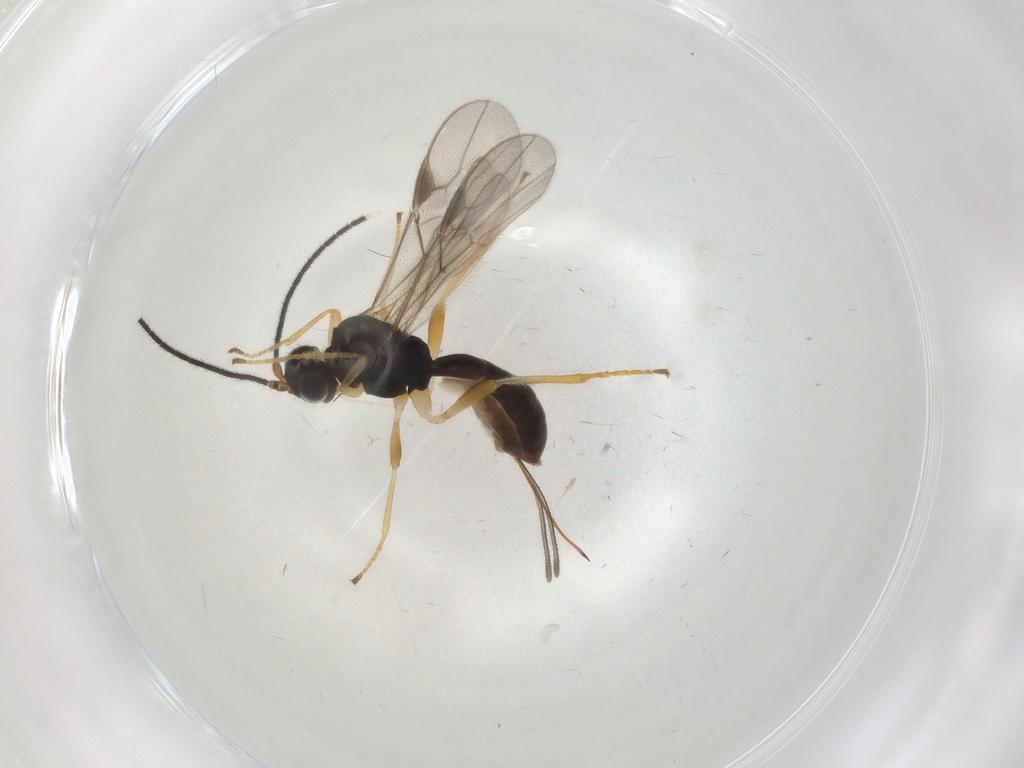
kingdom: Animalia
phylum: Arthropoda
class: Insecta
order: Hymenoptera
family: Braconidae
